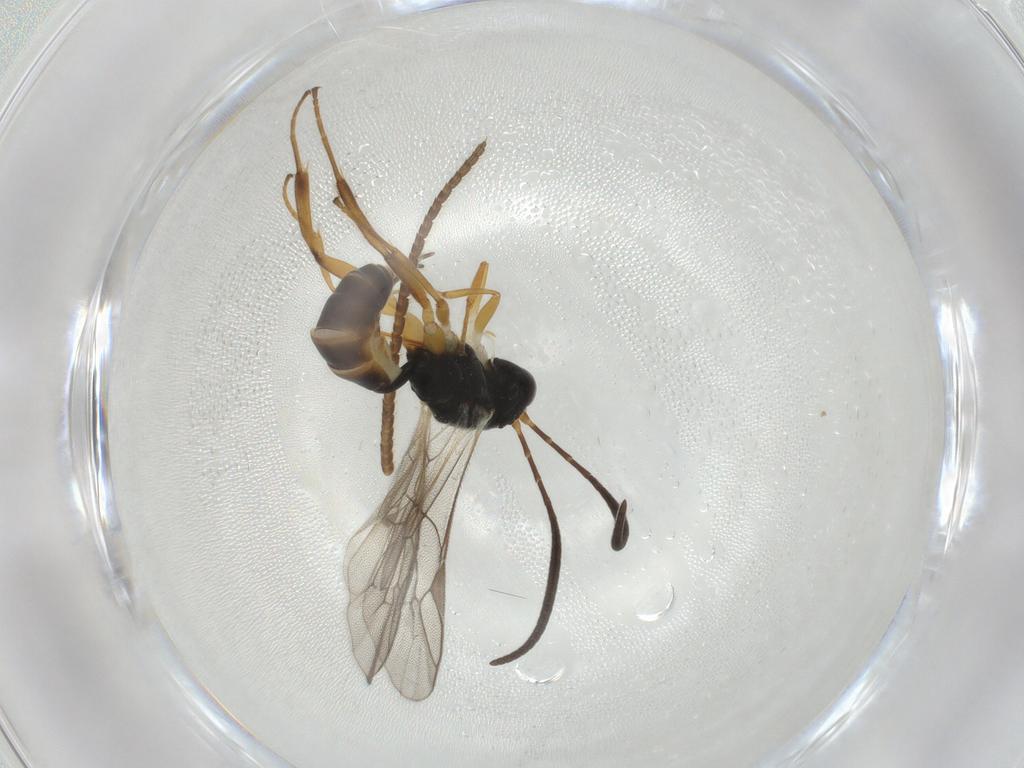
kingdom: Animalia
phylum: Arthropoda
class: Insecta
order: Hymenoptera
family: Ichneumonidae
